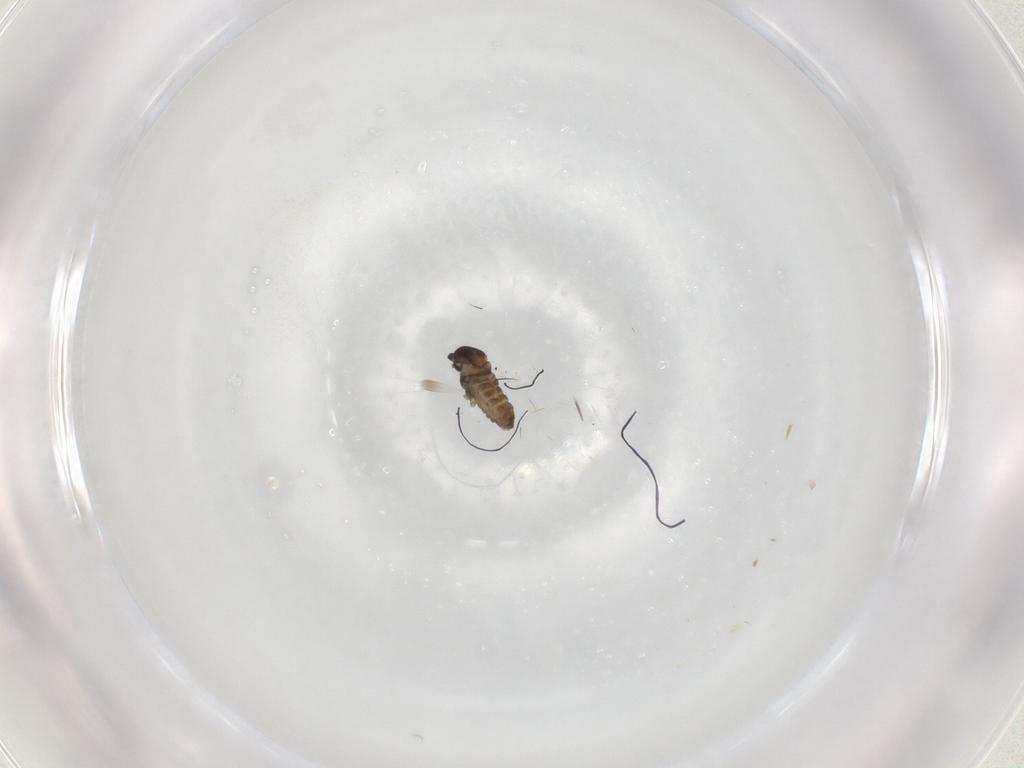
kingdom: Animalia
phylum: Arthropoda
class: Insecta
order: Diptera
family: Cecidomyiidae
